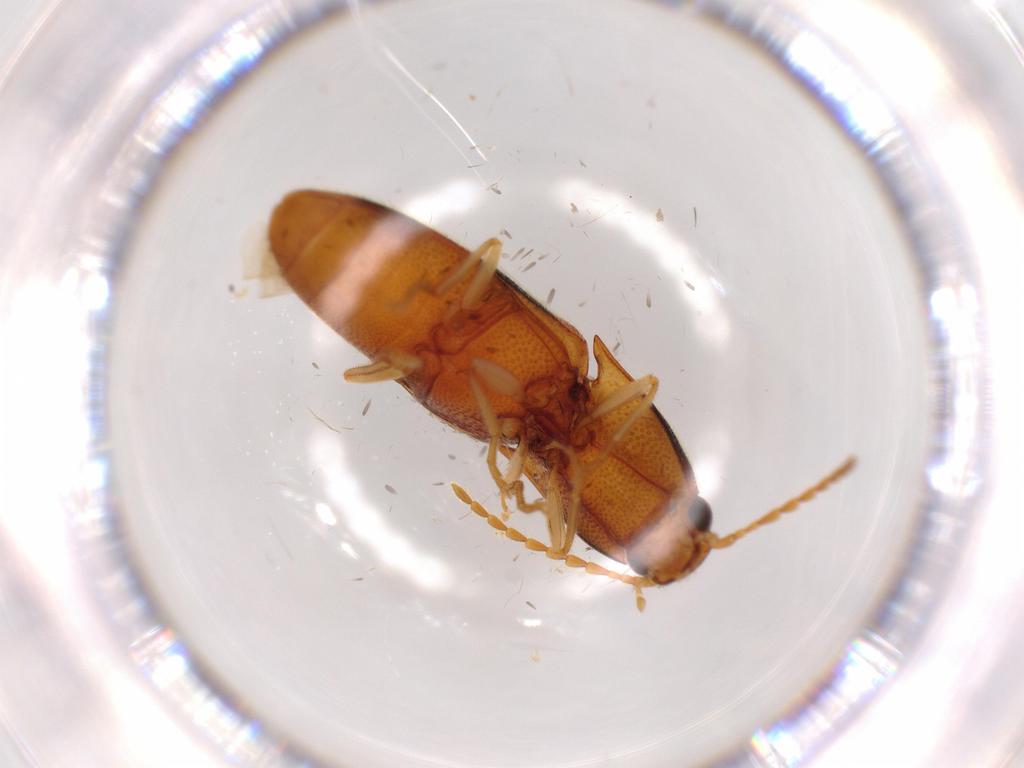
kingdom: Animalia
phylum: Arthropoda
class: Insecta
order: Coleoptera
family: Elateridae
